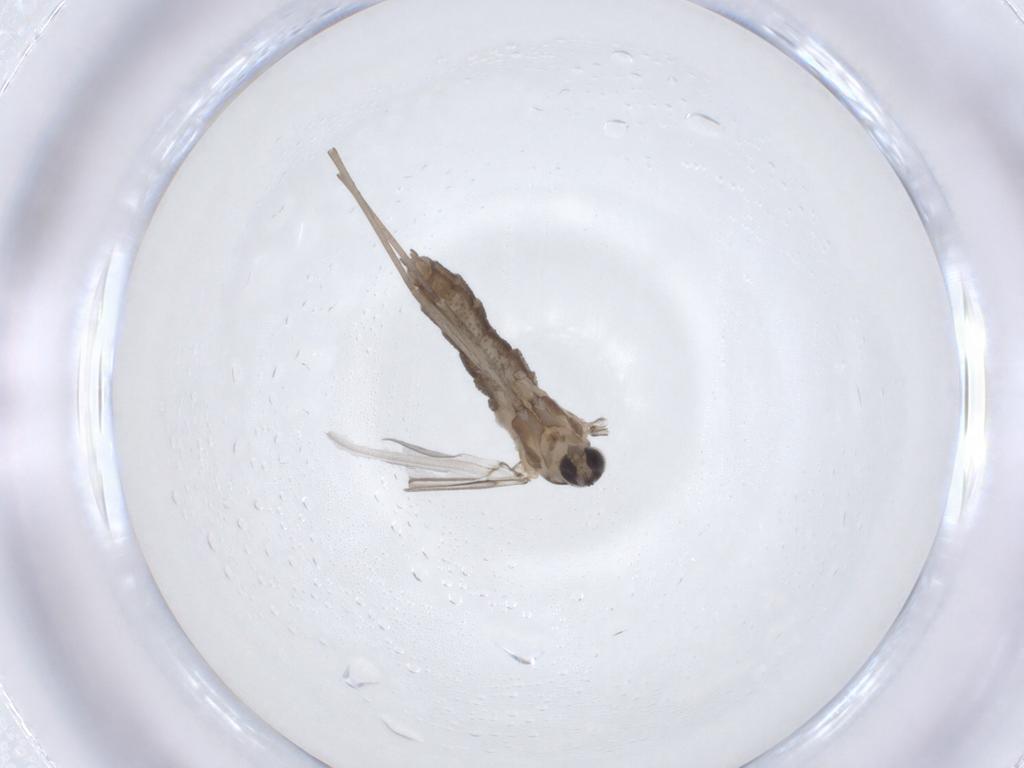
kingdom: Animalia
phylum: Arthropoda
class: Insecta
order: Diptera
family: Cecidomyiidae
